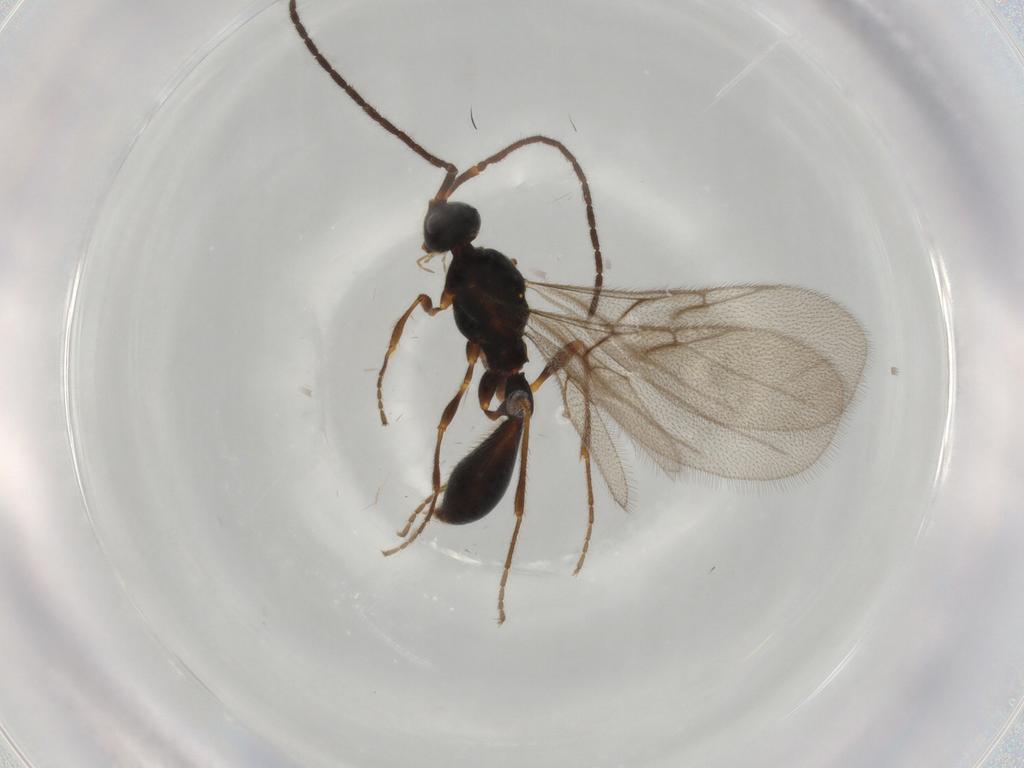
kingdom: Animalia
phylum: Arthropoda
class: Insecta
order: Hymenoptera
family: Diapriidae
